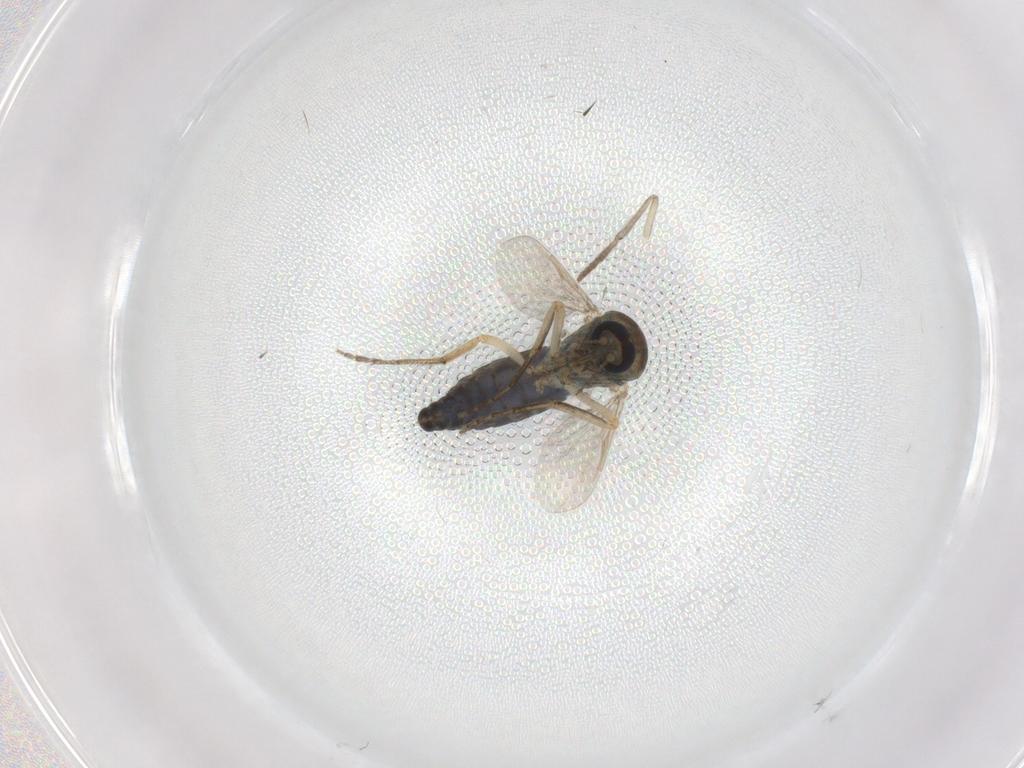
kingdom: Animalia
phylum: Arthropoda
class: Insecta
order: Diptera
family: Ceratopogonidae
